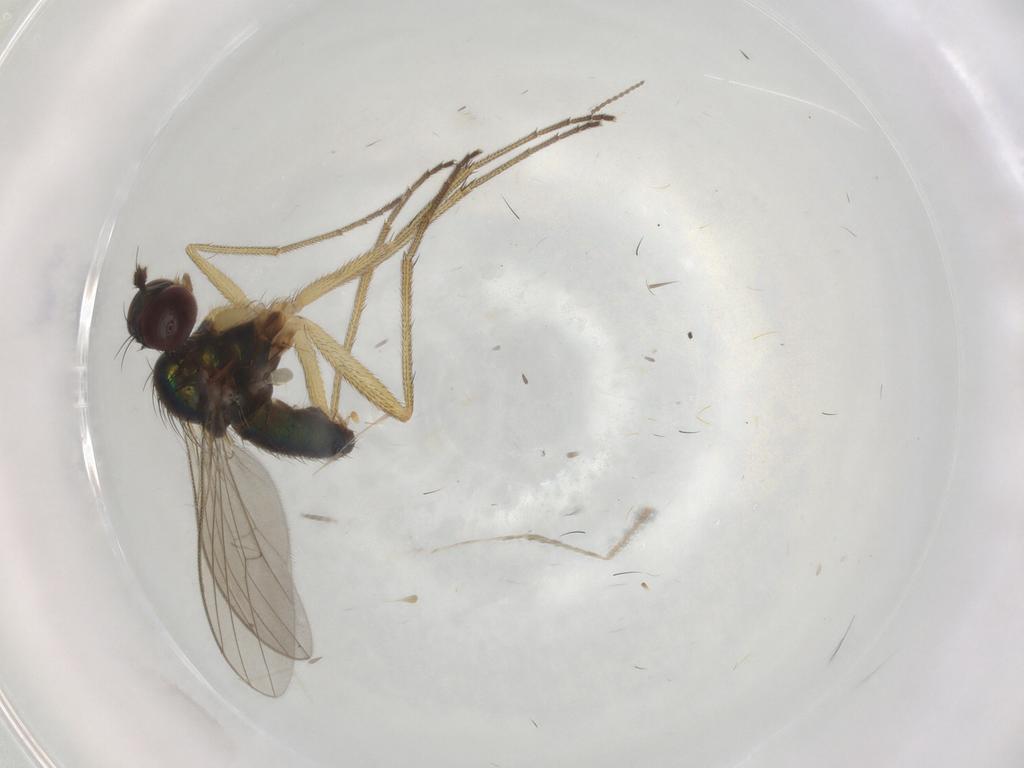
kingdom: Animalia
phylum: Arthropoda
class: Insecta
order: Diptera
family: Dolichopodidae
